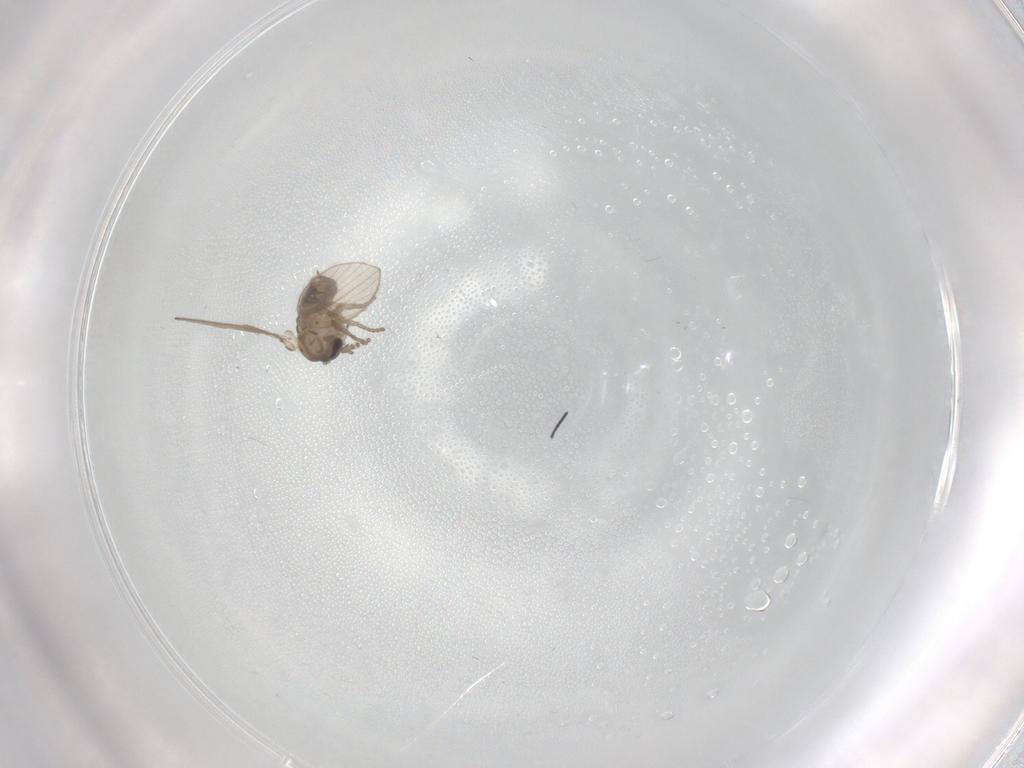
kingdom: Animalia
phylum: Arthropoda
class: Insecta
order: Diptera
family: Psychodidae
